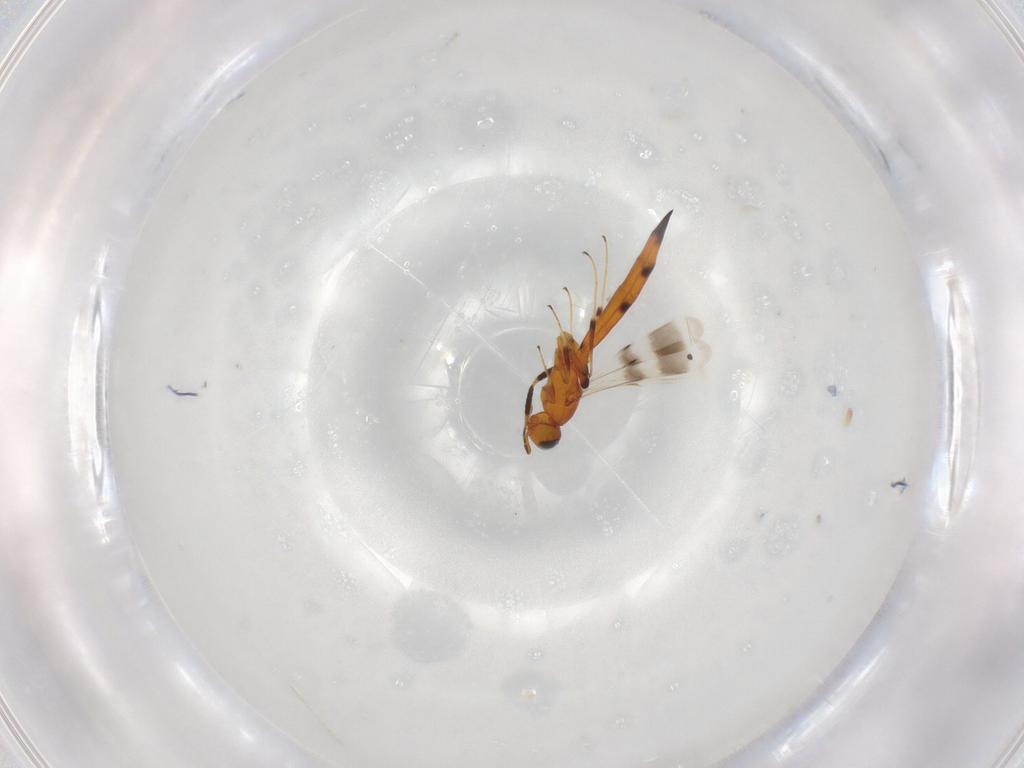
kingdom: Animalia
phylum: Arthropoda
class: Insecta
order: Hymenoptera
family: Scelionidae
